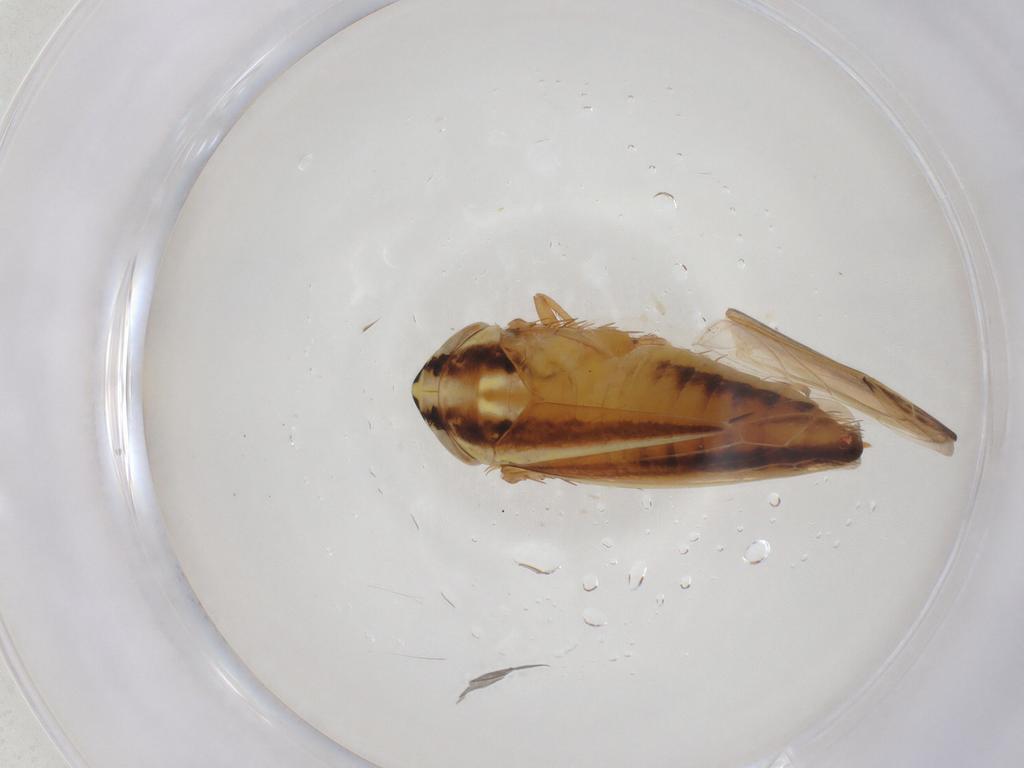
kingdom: Animalia
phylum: Arthropoda
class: Insecta
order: Hemiptera
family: Cicadellidae
